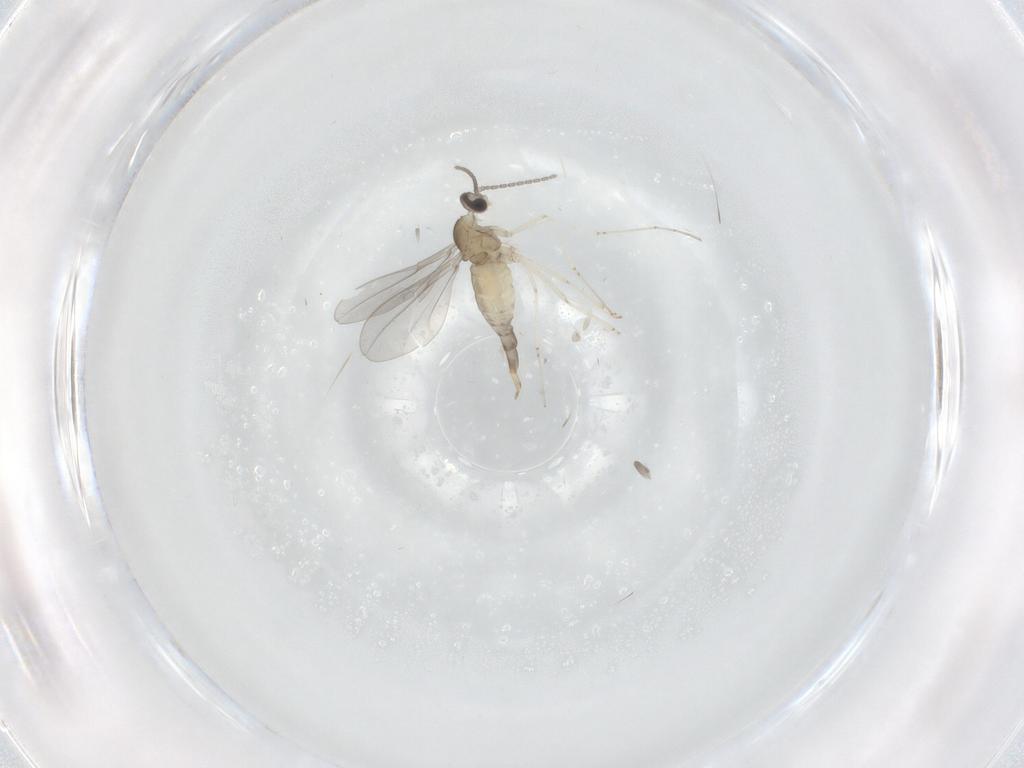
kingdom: Animalia
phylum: Arthropoda
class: Insecta
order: Diptera
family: Cecidomyiidae
